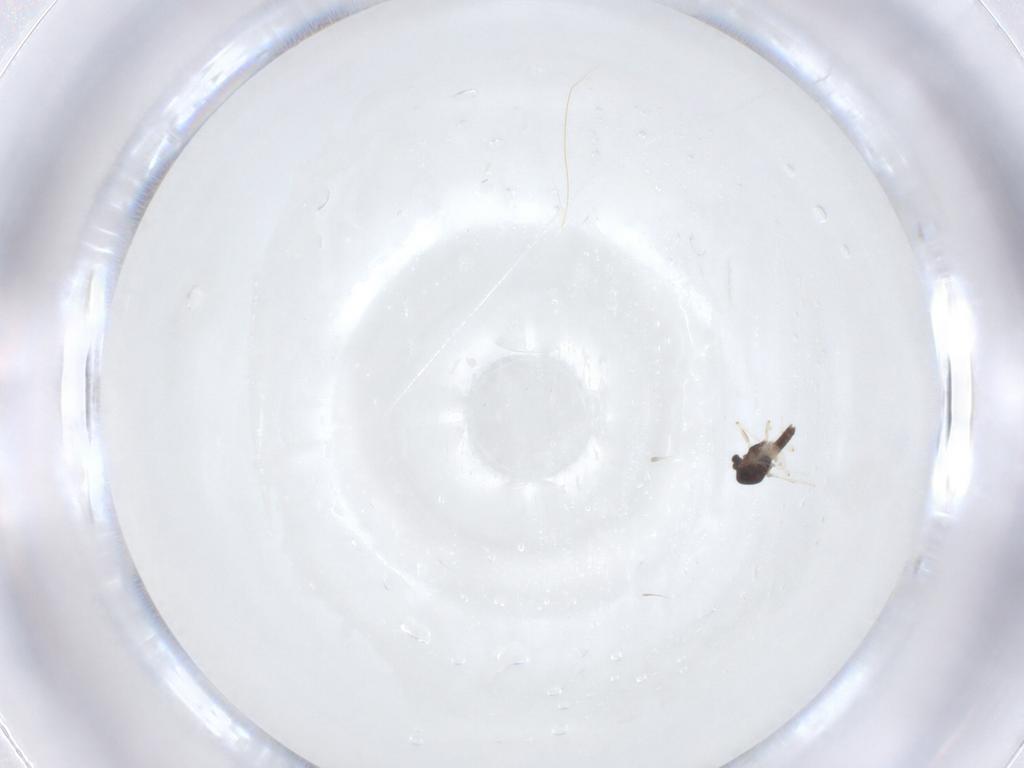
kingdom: Animalia
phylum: Arthropoda
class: Insecta
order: Diptera
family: Chironomidae
